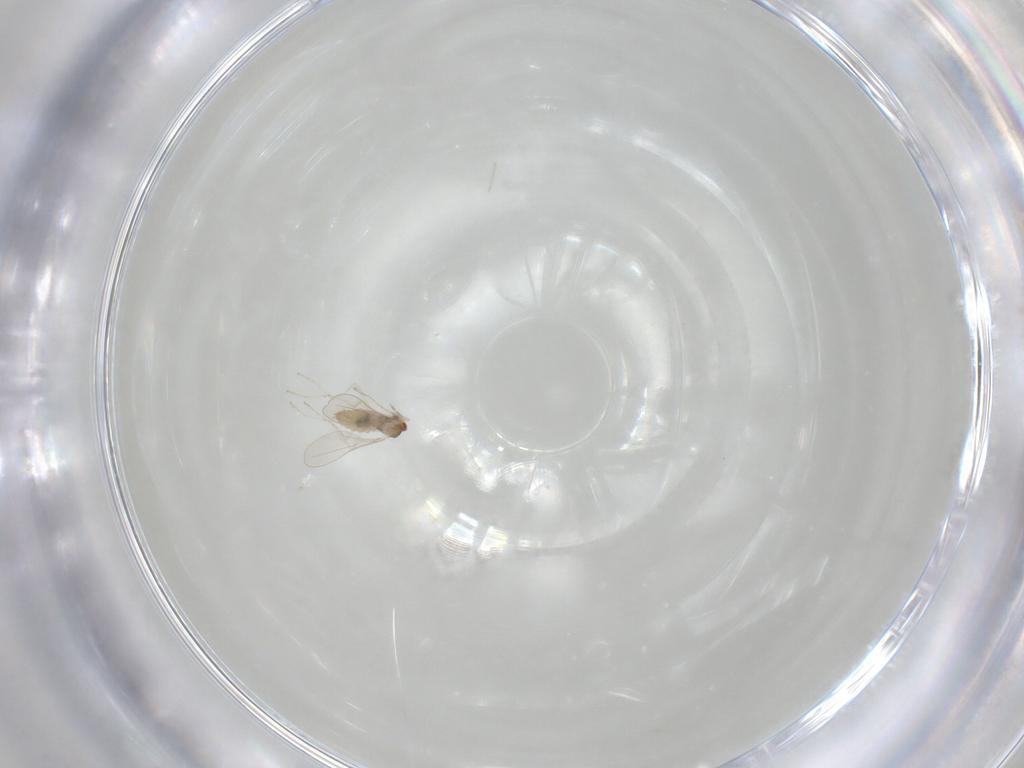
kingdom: Animalia
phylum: Arthropoda
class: Insecta
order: Diptera
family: Cecidomyiidae
